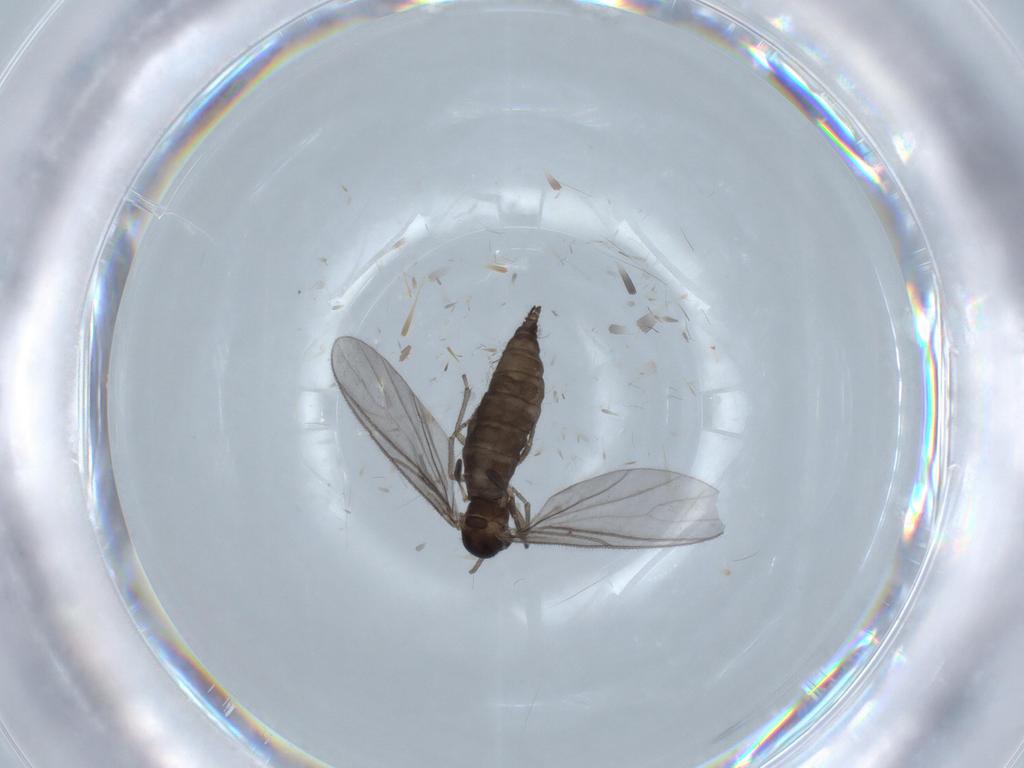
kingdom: Animalia
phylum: Arthropoda
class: Insecta
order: Diptera
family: Sciaridae
